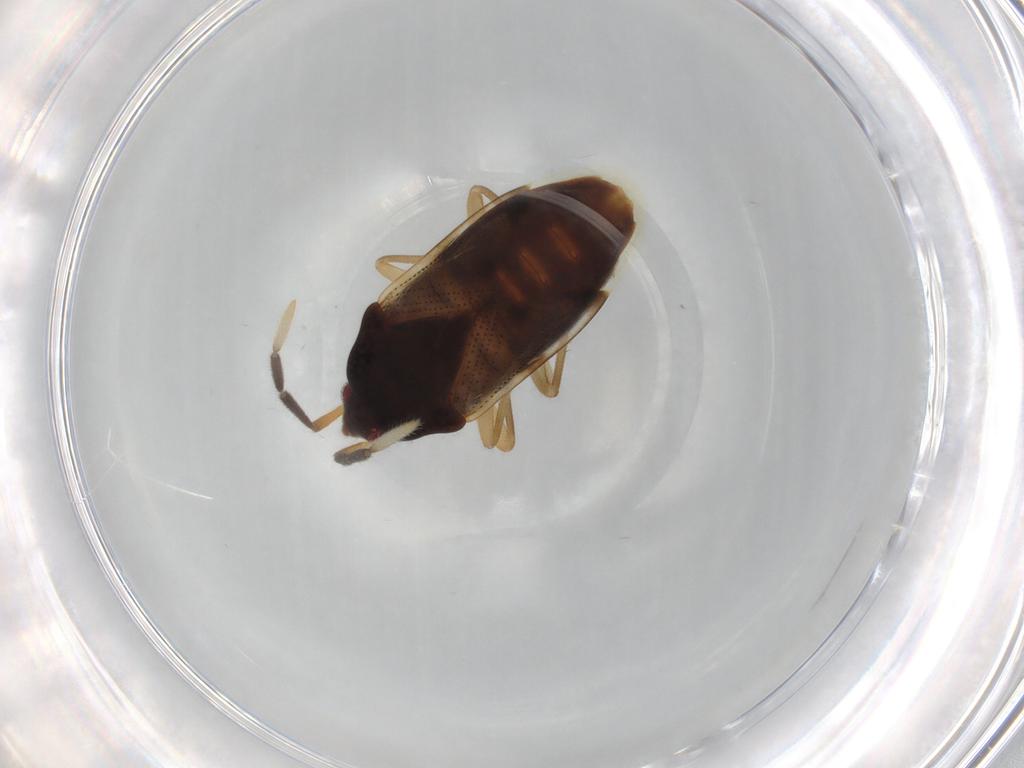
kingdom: Animalia
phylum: Arthropoda
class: Insecta
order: Hemiptera
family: Rhyparochromidae
